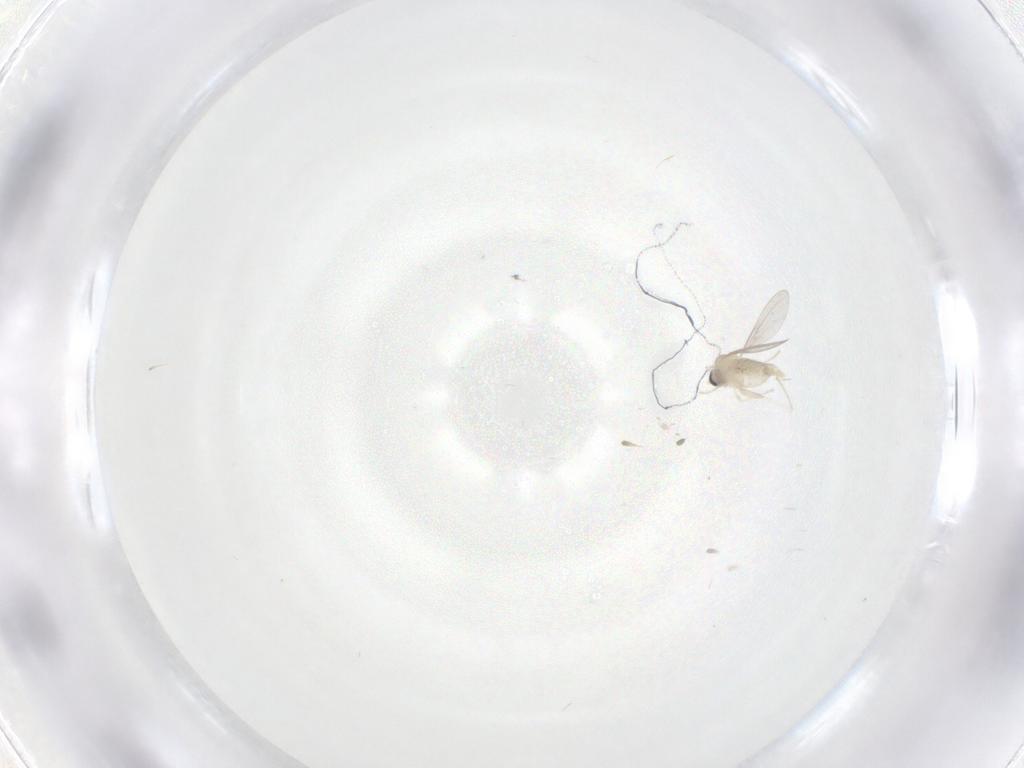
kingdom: Animalia
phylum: Arthropoda
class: Insecta
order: Diptera
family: Cecidomyiidae
